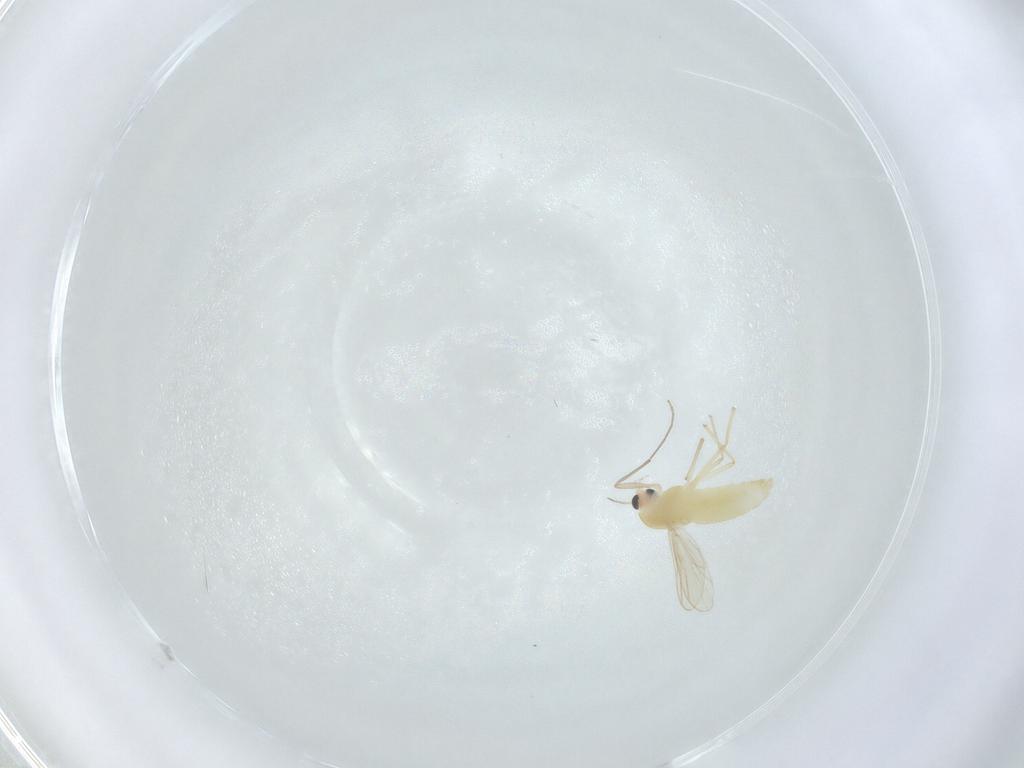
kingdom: Animalia
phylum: Arthropoda
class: Insecta
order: Diptera
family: Chironomidae
